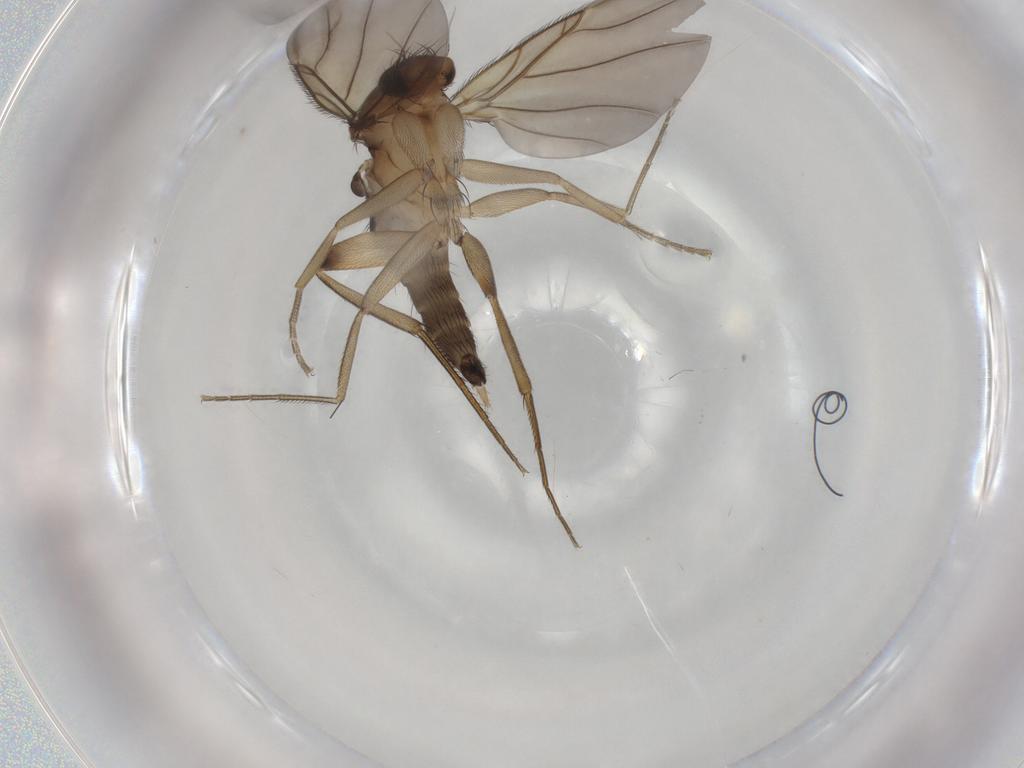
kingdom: Animalia
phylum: Arthropoda
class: Insecta
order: Diptera
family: Phoridae
